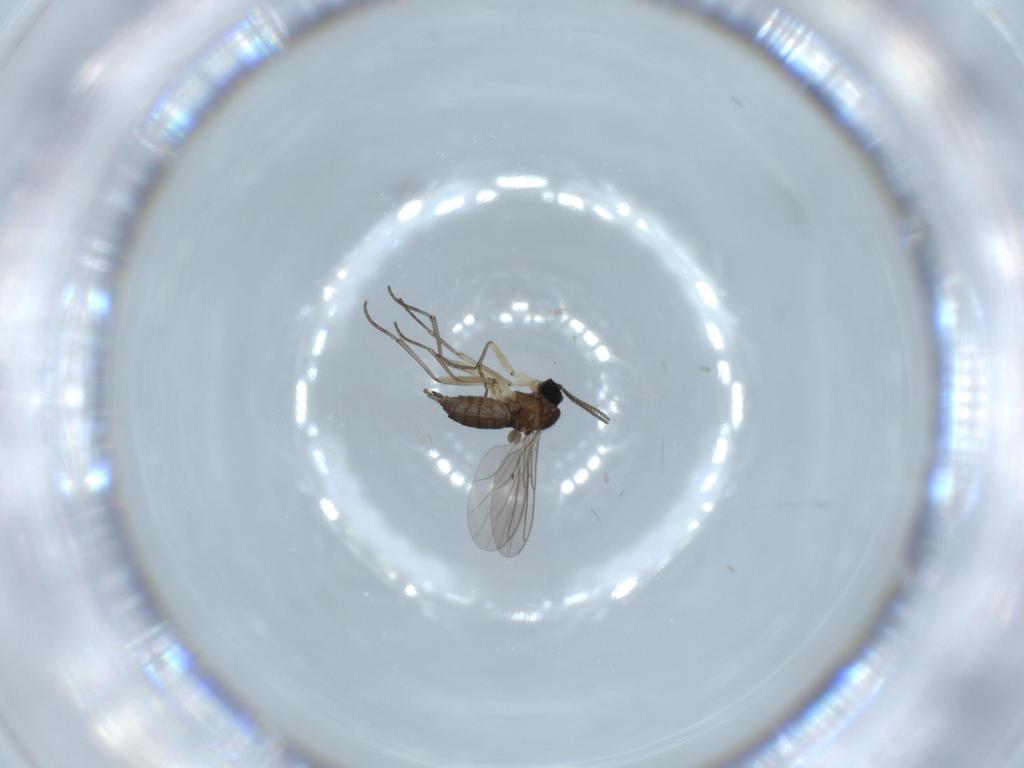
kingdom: Animalia
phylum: Arthropoda
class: Insecta
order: Diptera
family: Sciaridae
